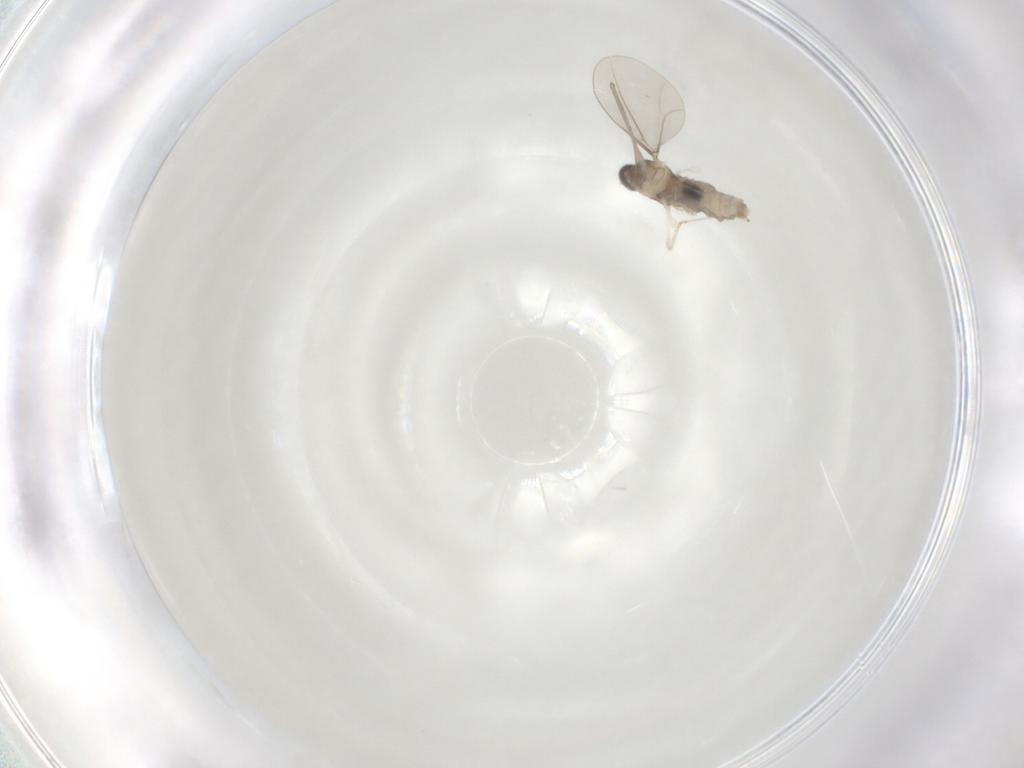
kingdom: Animalia
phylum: Arthropoda
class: Insecta
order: Diptera
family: Cecidomyiidae
